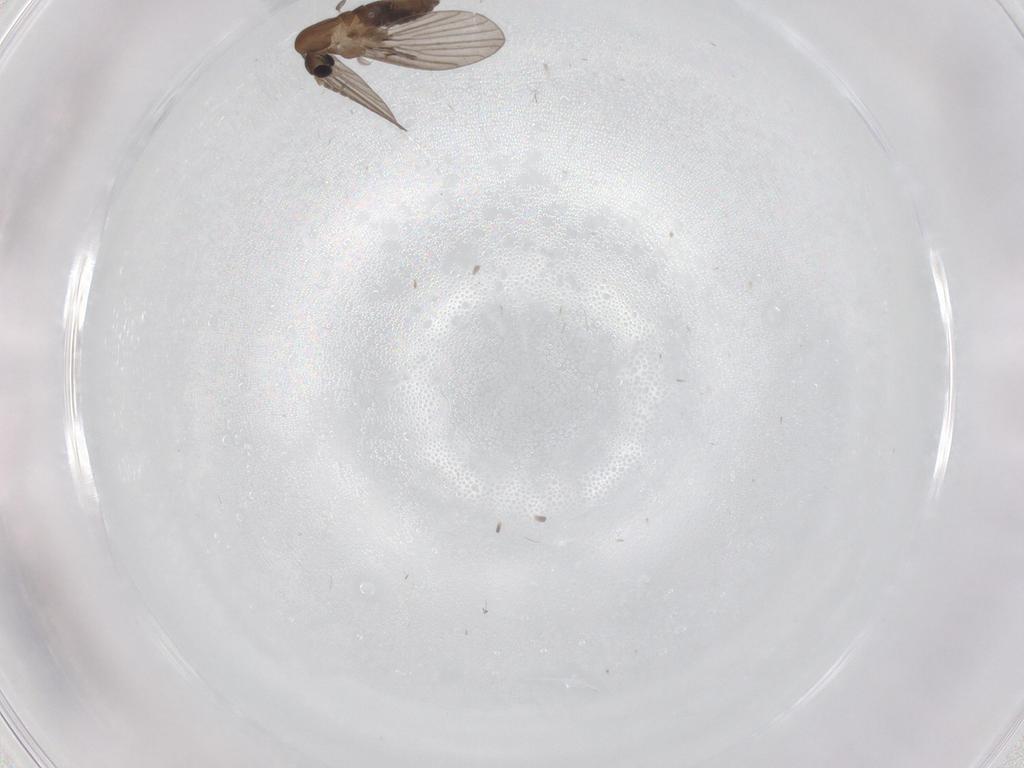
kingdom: Animalia
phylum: Arthropoda
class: Insecta
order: Diptera
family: Psychodidae
